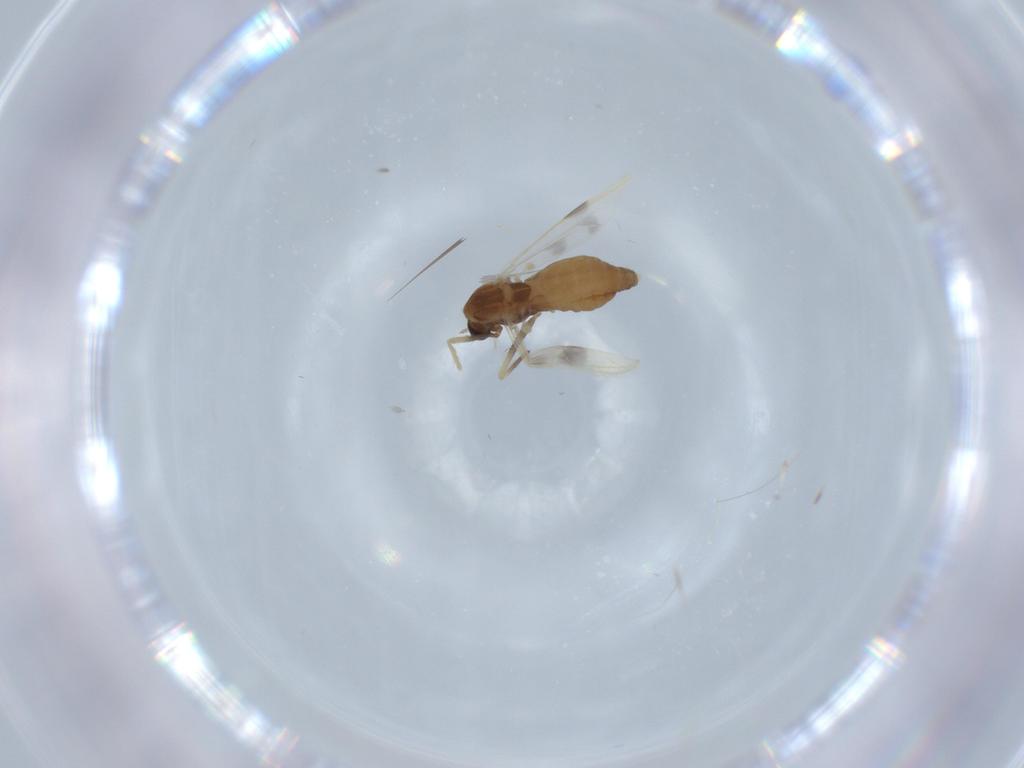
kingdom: Animalia
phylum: Arthropoda
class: Insecta
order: Diptera
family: Chironomidae
